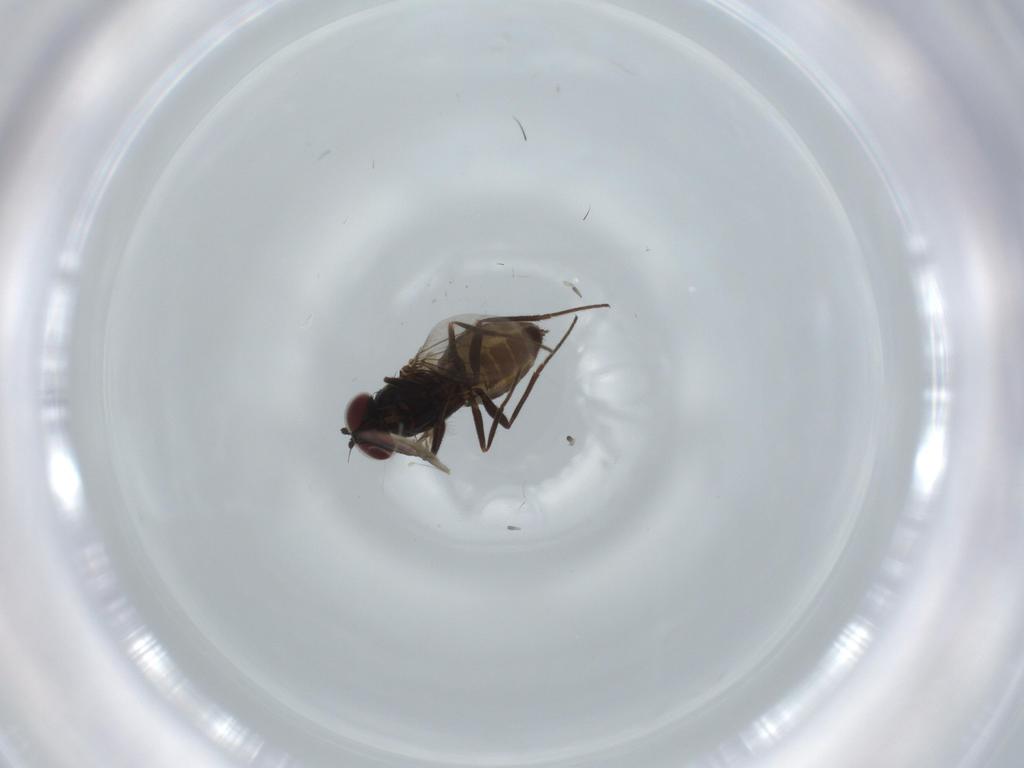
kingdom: Animalia
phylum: Arthropoda
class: Insecta
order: Diptera
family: Dolichopodidae
